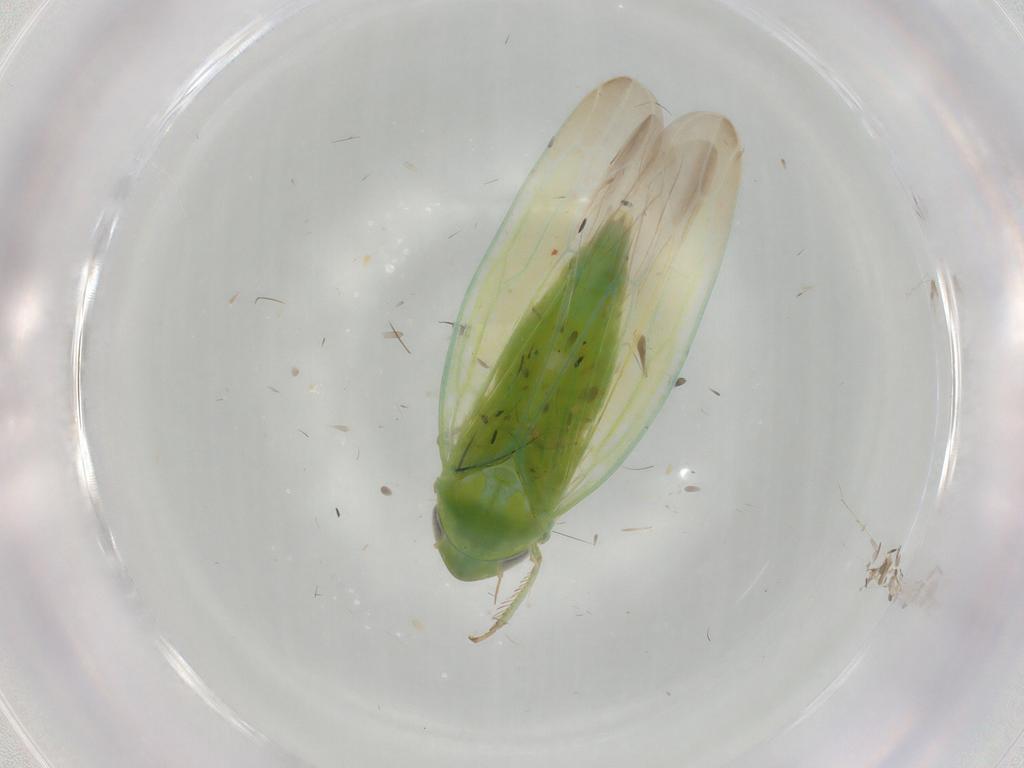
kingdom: Animalia
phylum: Arthropoda
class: Insecta
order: Hemiptera
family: Cicadellidae
